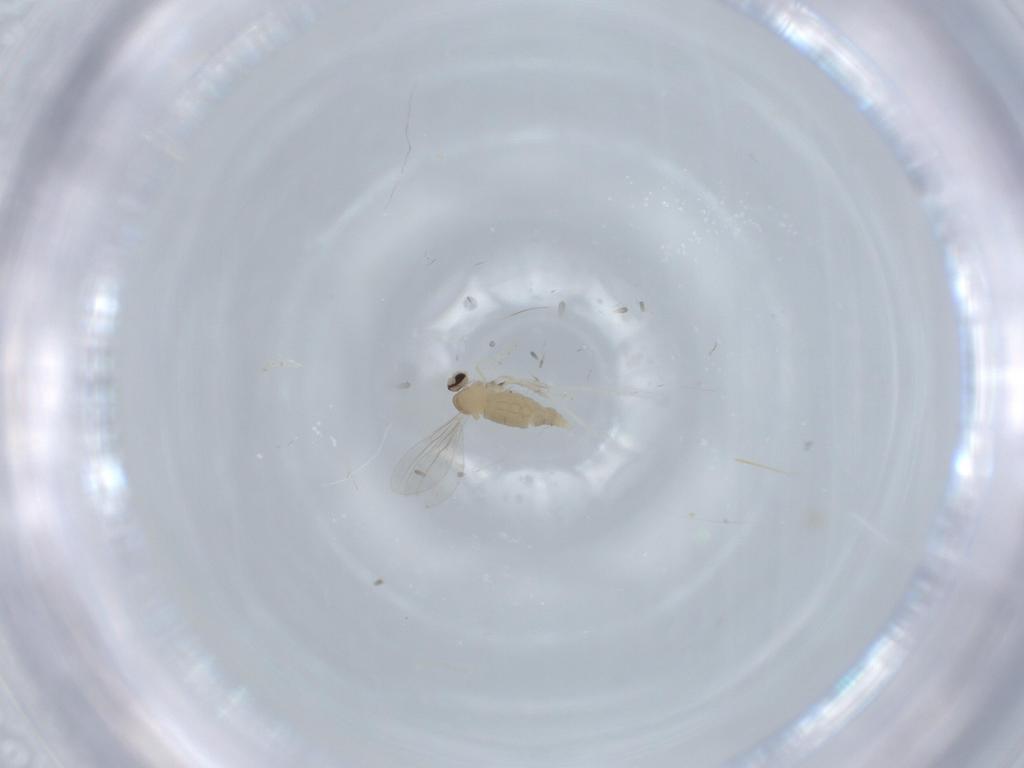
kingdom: Animalia
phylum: Arthropoda
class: Insecta
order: Diptera
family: Cecidomyiidae
